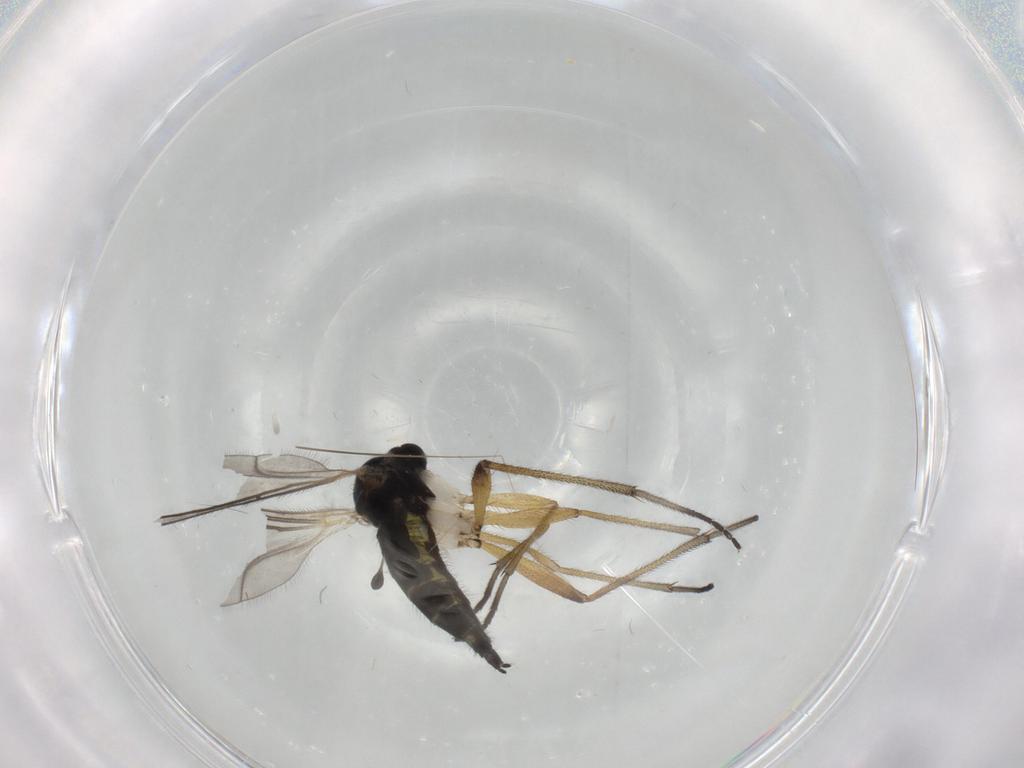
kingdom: Animalia
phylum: Arthropoda
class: Insecta
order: Diptera
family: Sciaridae
